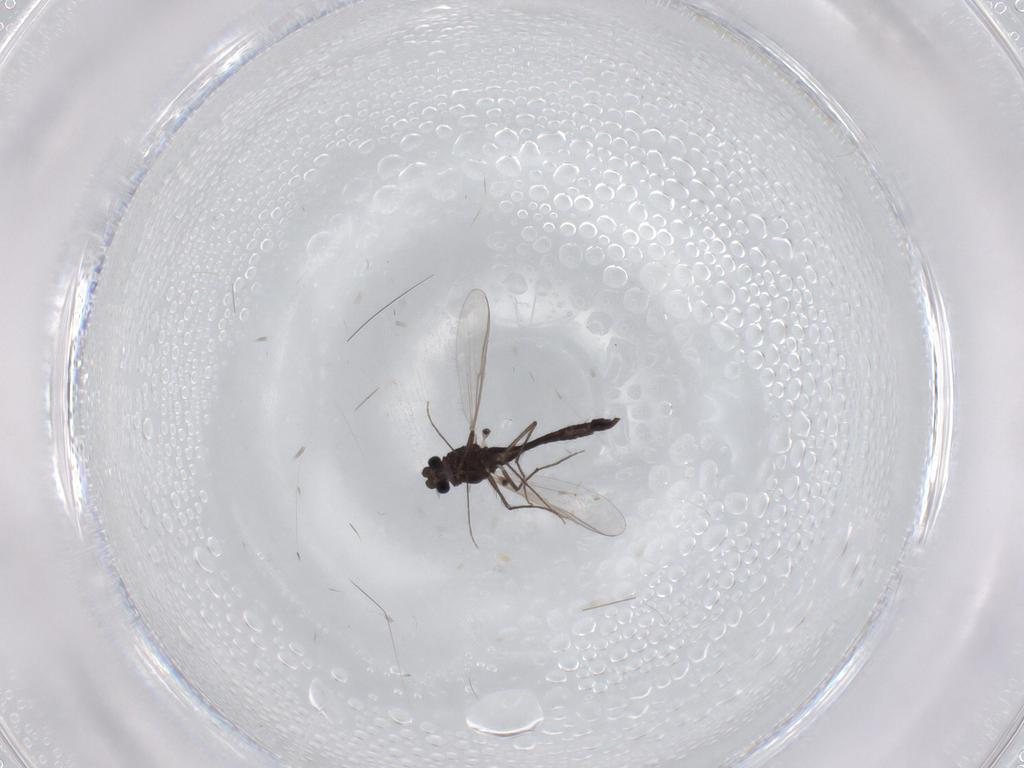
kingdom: Animalia
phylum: Arthropoda
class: Insecta
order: Diptera
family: Chironomidae
